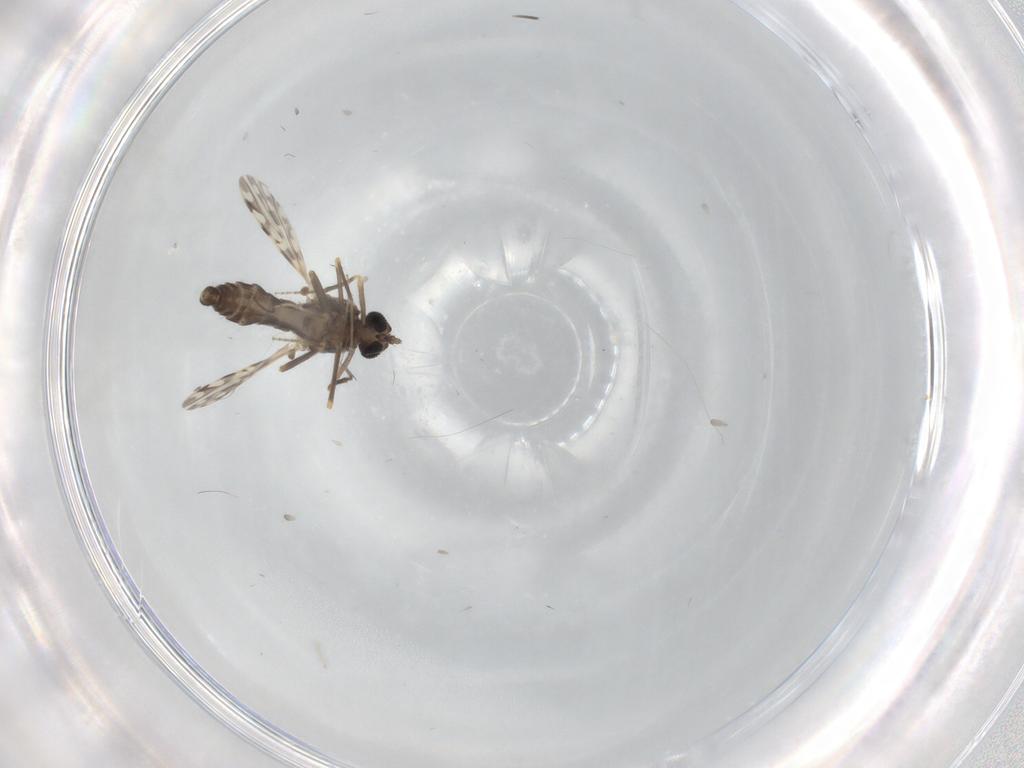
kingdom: Animalia
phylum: Arthropoda
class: Insecta
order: Diptera
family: Ceratopogonidae
